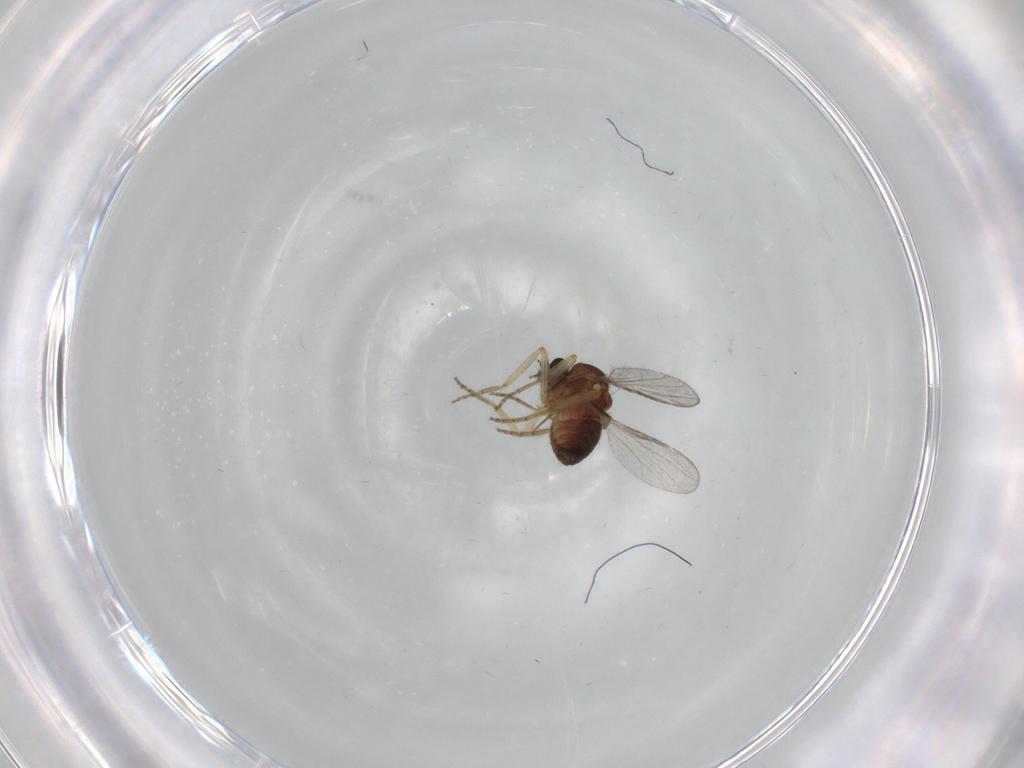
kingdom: Animalia
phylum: Arthropoda
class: Insecta
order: Diptera
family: Ceratopogonidae
